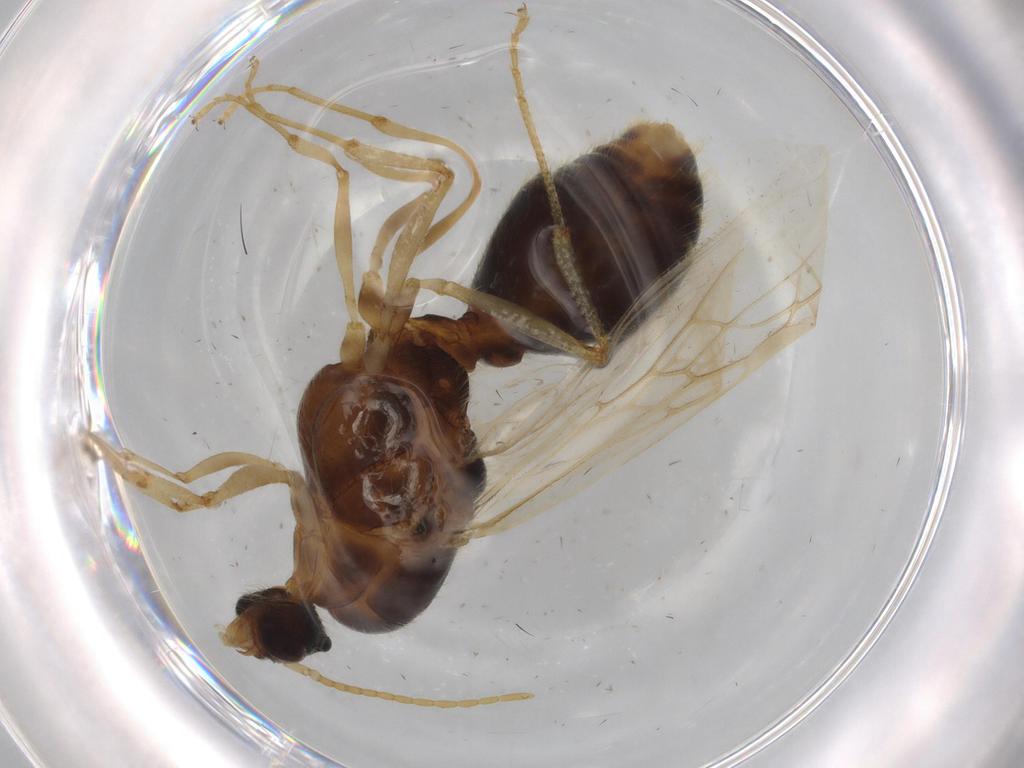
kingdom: Animalia
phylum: Arthropoda
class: Insecta
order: Hymenoptera
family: Formicidae
